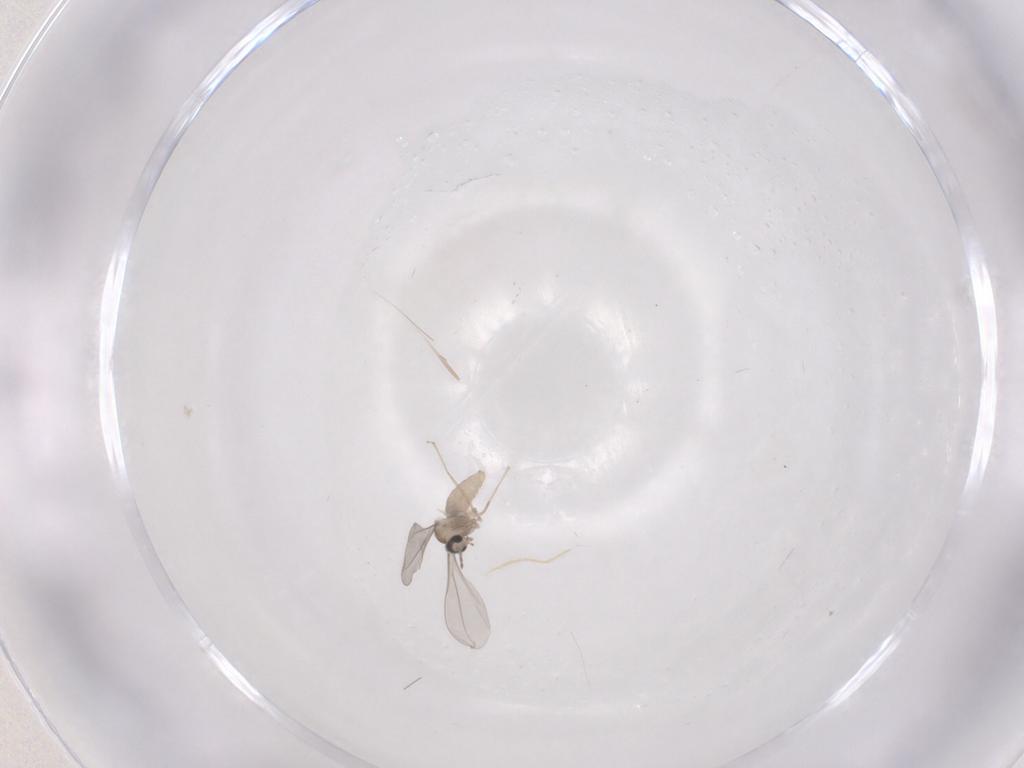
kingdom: Animalia
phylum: Arthropoda
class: Insecta
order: Diptera
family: Cecidomyiidae
